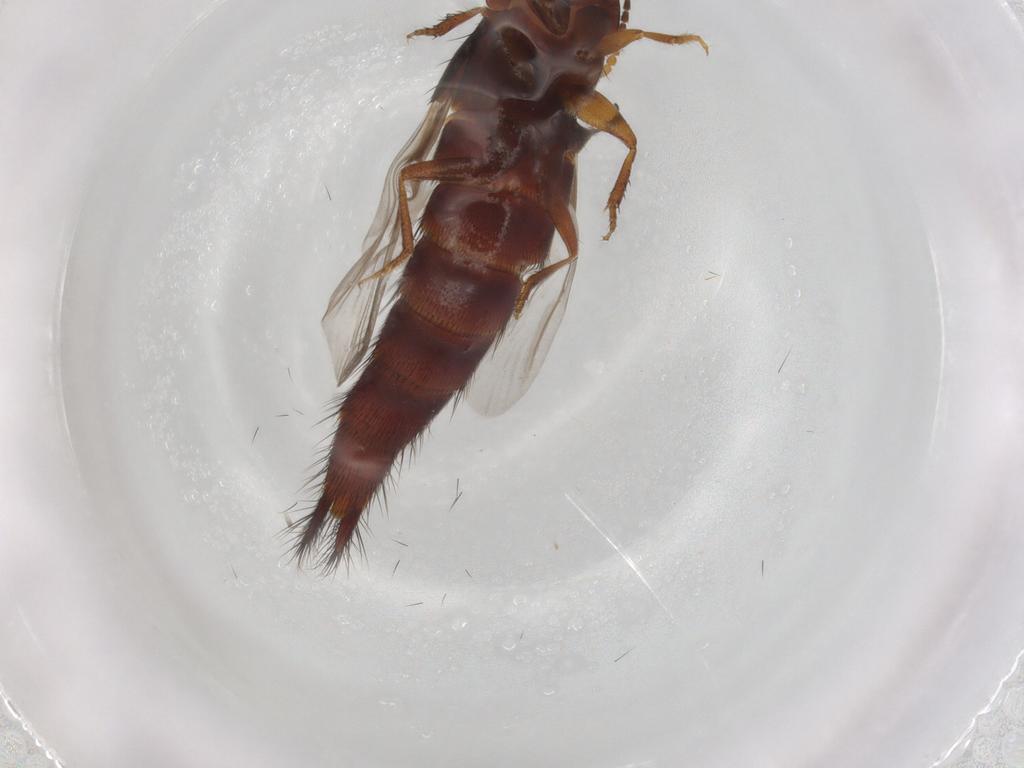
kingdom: Animalia
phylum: Arthropoda
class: Insecta
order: Coleoptera
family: Staphylinidae
